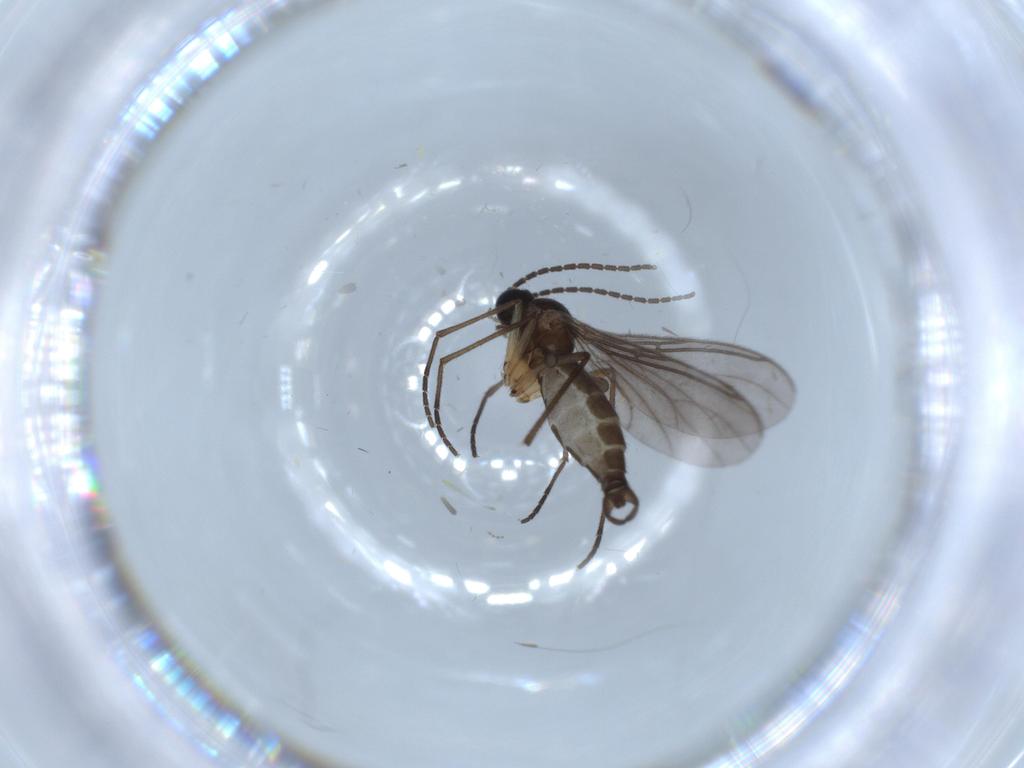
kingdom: Animalia
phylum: Arthropoda
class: Insecta
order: Diptera
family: Sciaridae
